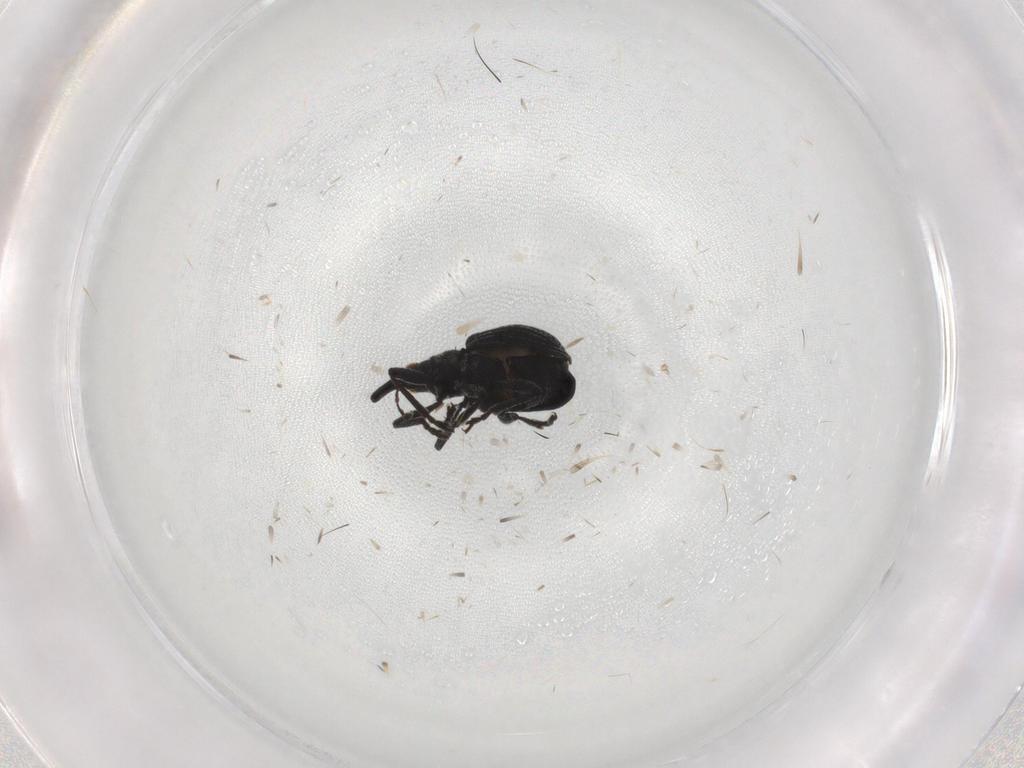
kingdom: Animalia
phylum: Arthropoda
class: Insecta
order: Coleoptera
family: Brentidae
